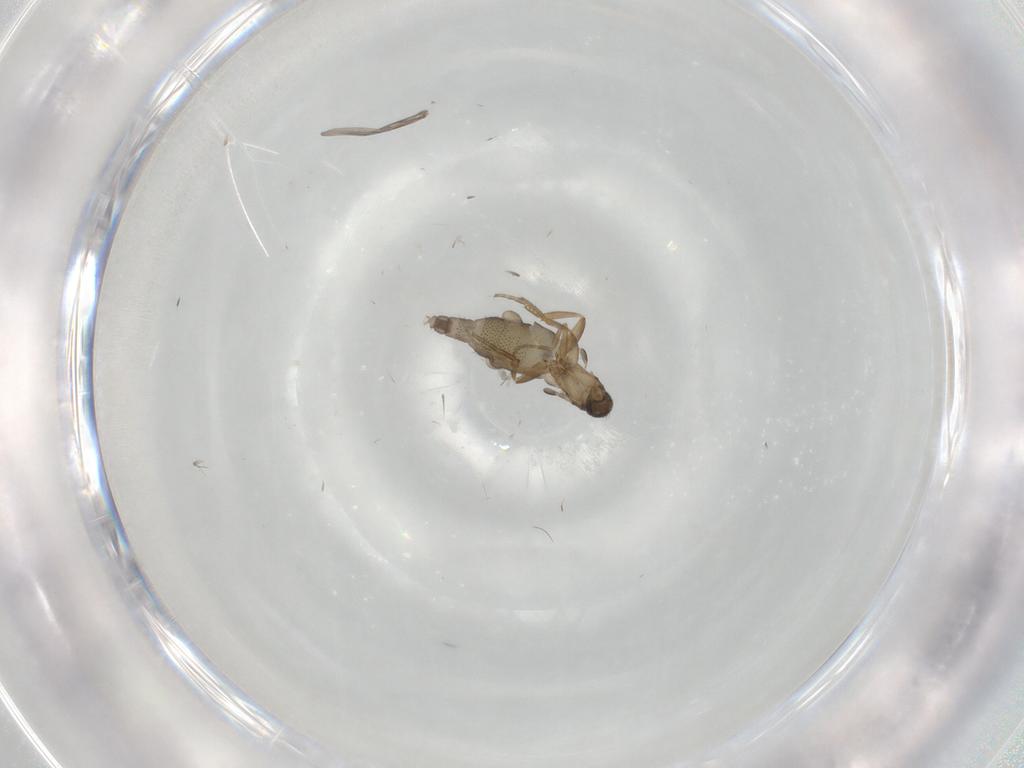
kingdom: Animalia
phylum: Arthropoda
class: Insecta
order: Diptera
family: Phoridae
